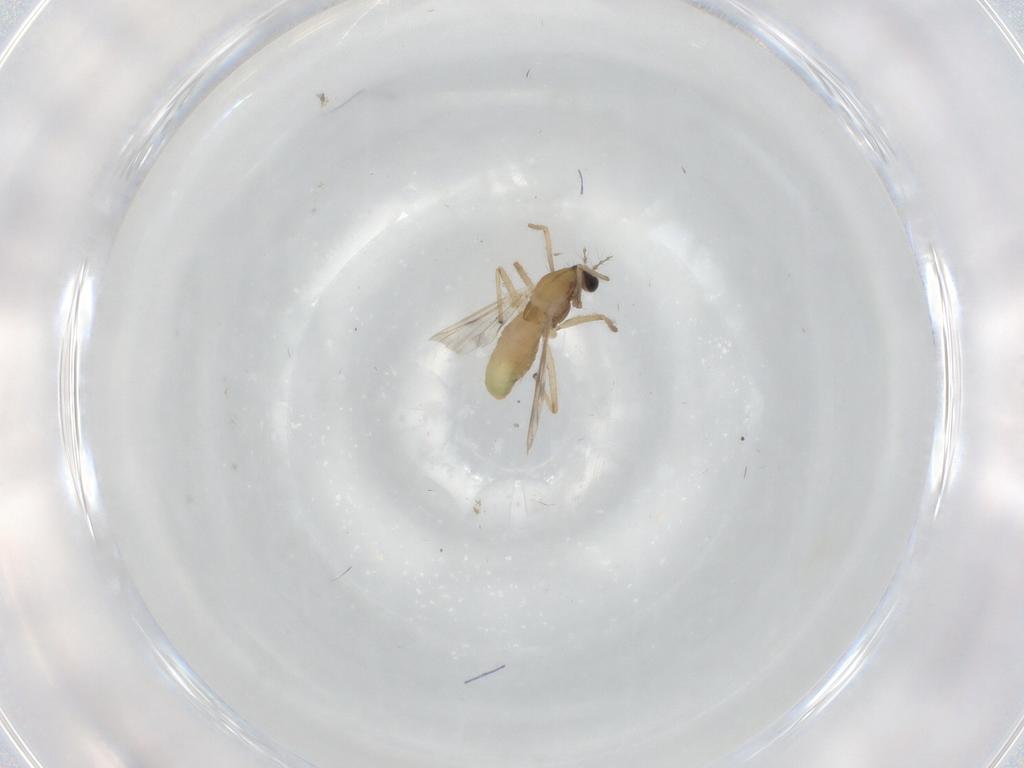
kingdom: Animalia
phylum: Arthropoda
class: Insecta
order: Diptera
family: Chironomidae
